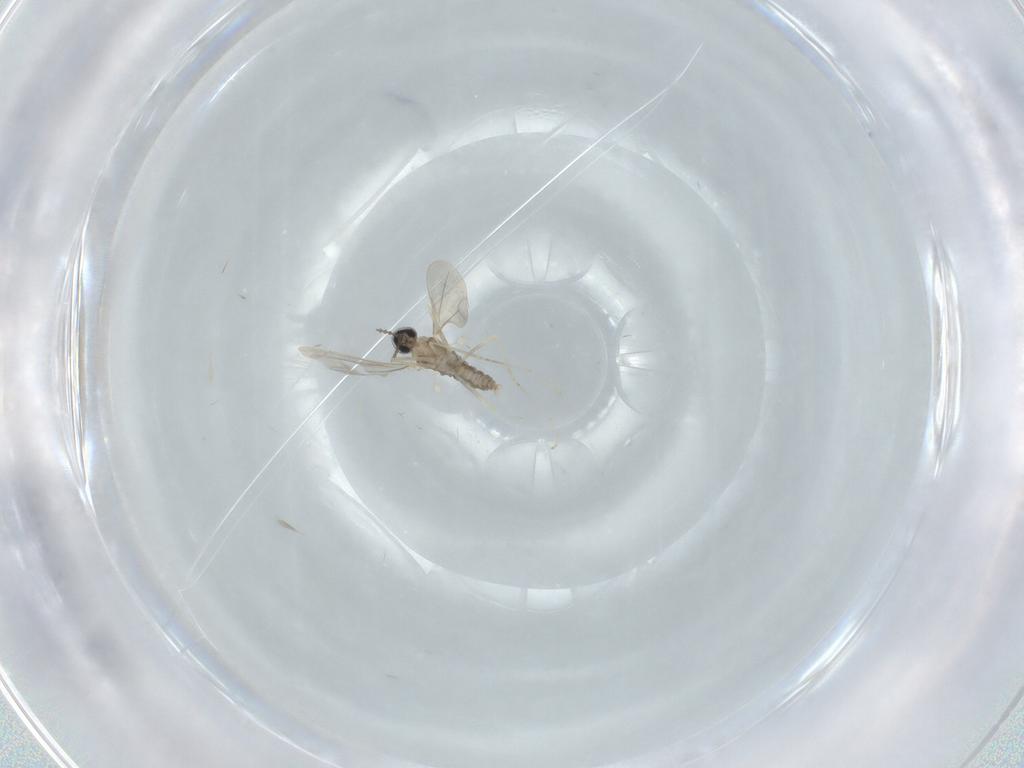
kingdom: Animalia
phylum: Arthropoda
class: Insecta
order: Diptera
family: Cecidomyiidae
